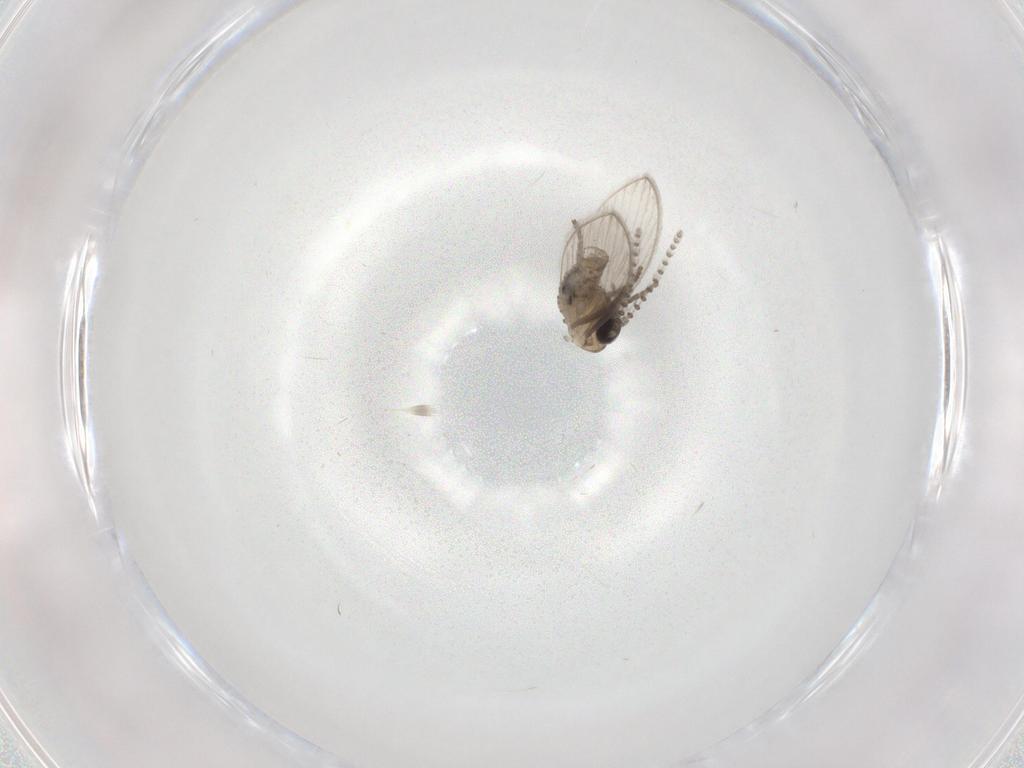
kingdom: Animalia
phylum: Arthropoda
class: Insecta
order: Diptera
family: Psychodidae
